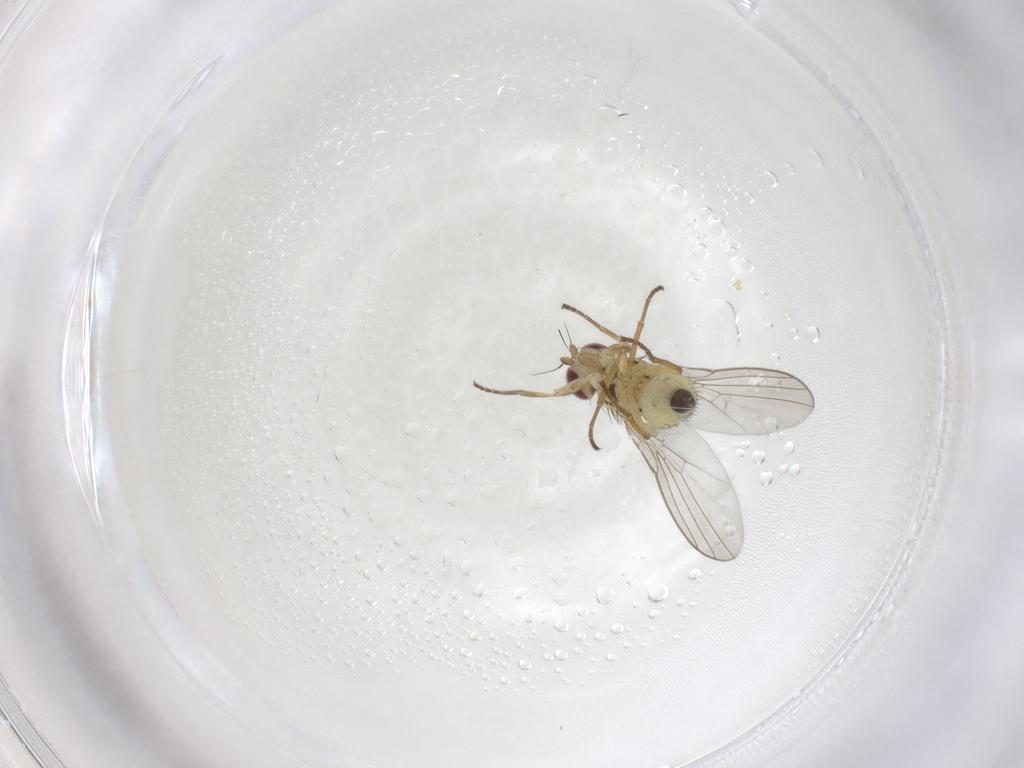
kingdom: Animalia
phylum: Arthropoda
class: Insecta
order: Diptera
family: Agromyzidae
